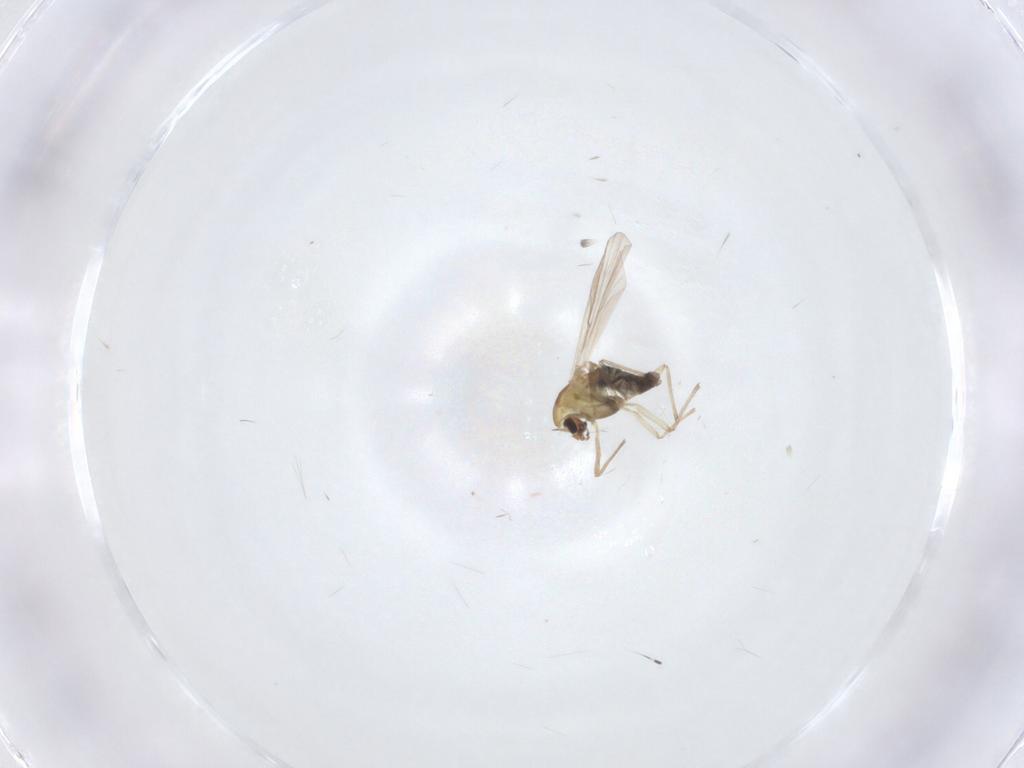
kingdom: Animalia
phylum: Arthropoda
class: Insecta
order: Diptera
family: Chironomidae
